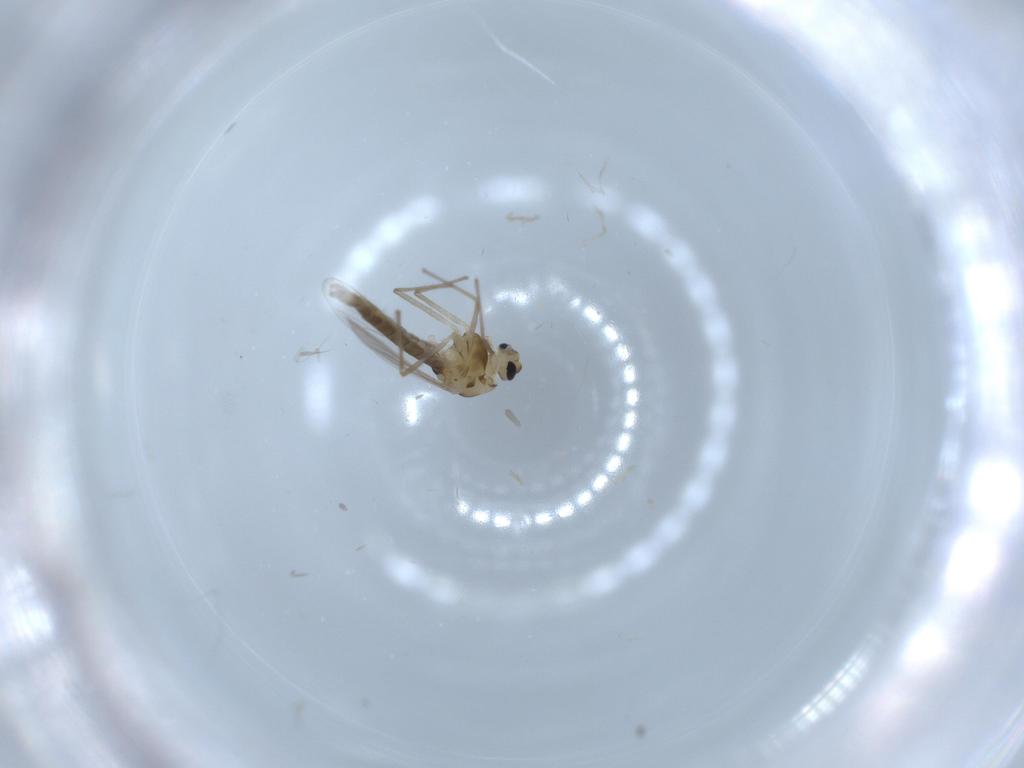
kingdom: Animalia
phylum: Arthropoda
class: Insecta
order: Diptera
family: Chironomidae
